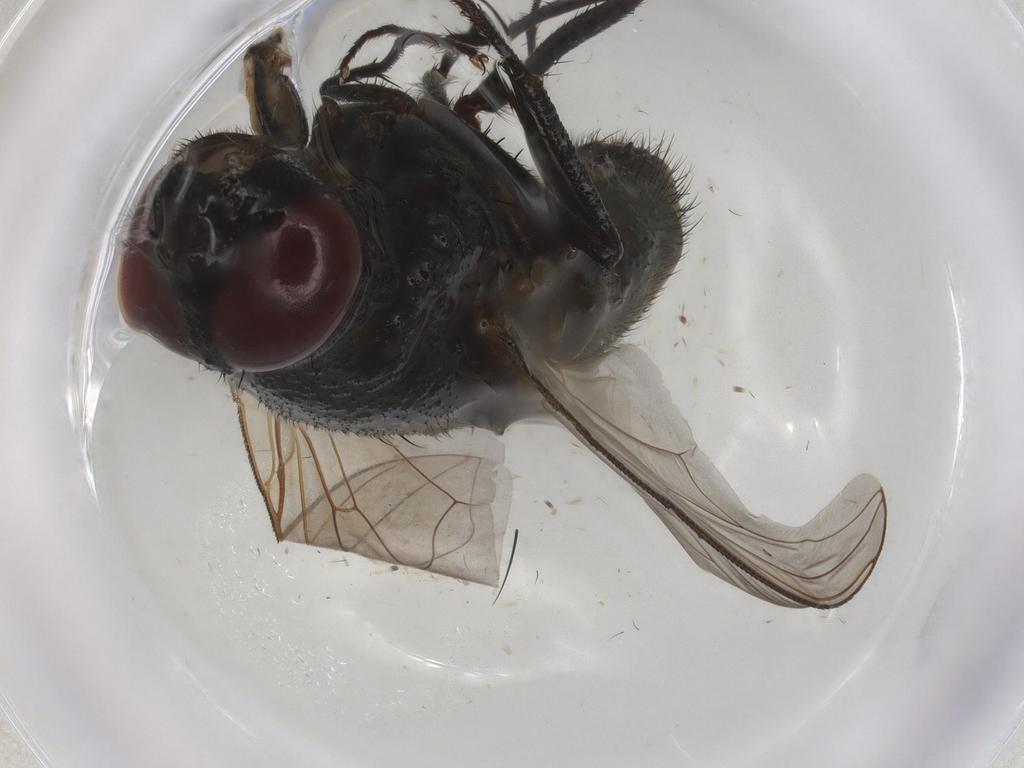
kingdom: Animalia
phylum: Arthropoda
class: Insecta
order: Diptera
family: Muscidae
